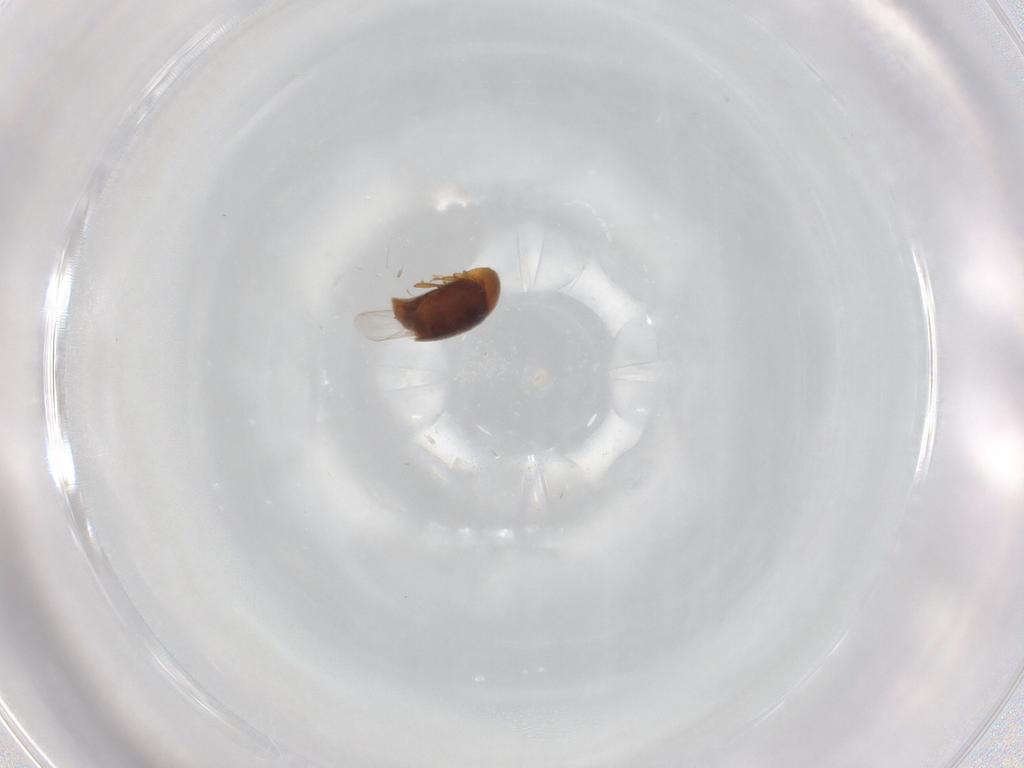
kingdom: Animalia
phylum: Arthropoda
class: Insecta
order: Coleoptera
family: Corylophidae
